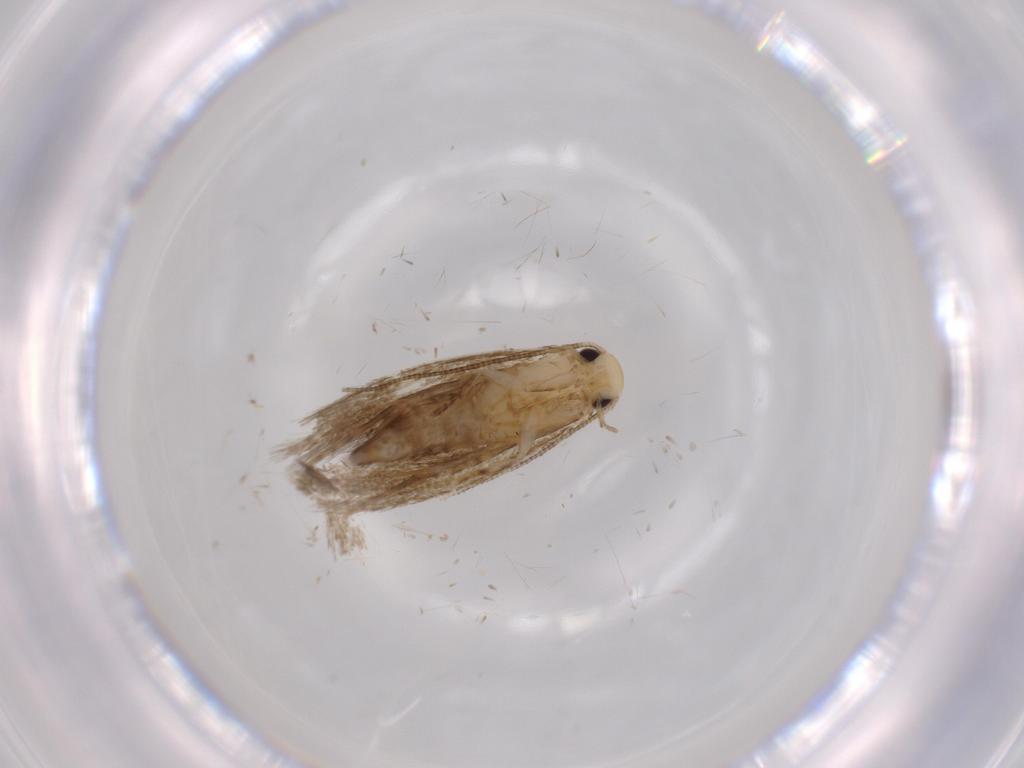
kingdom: Animalia
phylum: Arthropoda
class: Insecta
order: Lepidoptera
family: Tineidae
